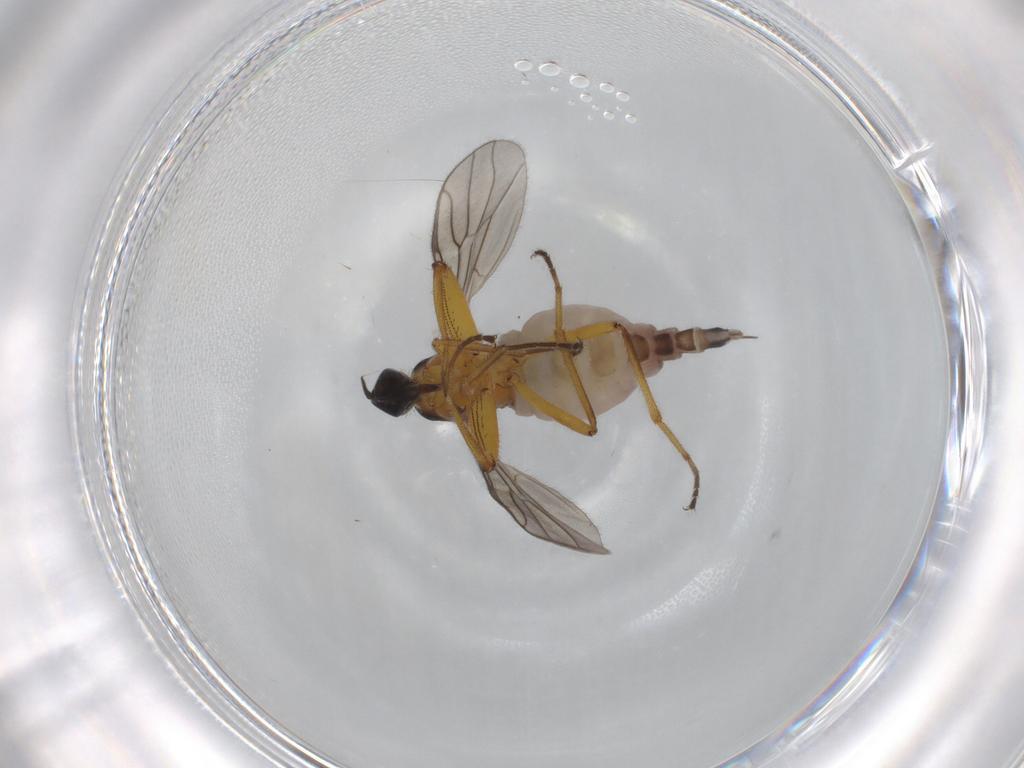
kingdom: Animalia
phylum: Arthropoda
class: Insecta
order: Diptera
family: Hybotidae
